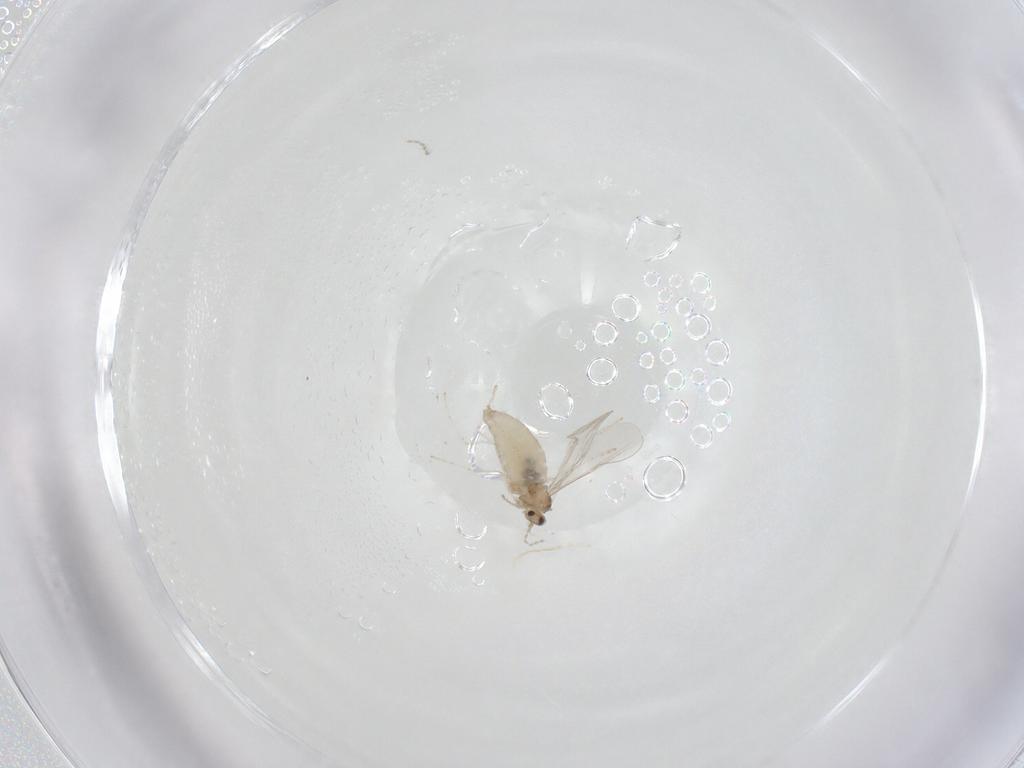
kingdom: Animalia
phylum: Arthropoda
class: Insecta
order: Diptera
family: Cecidomyiidae
